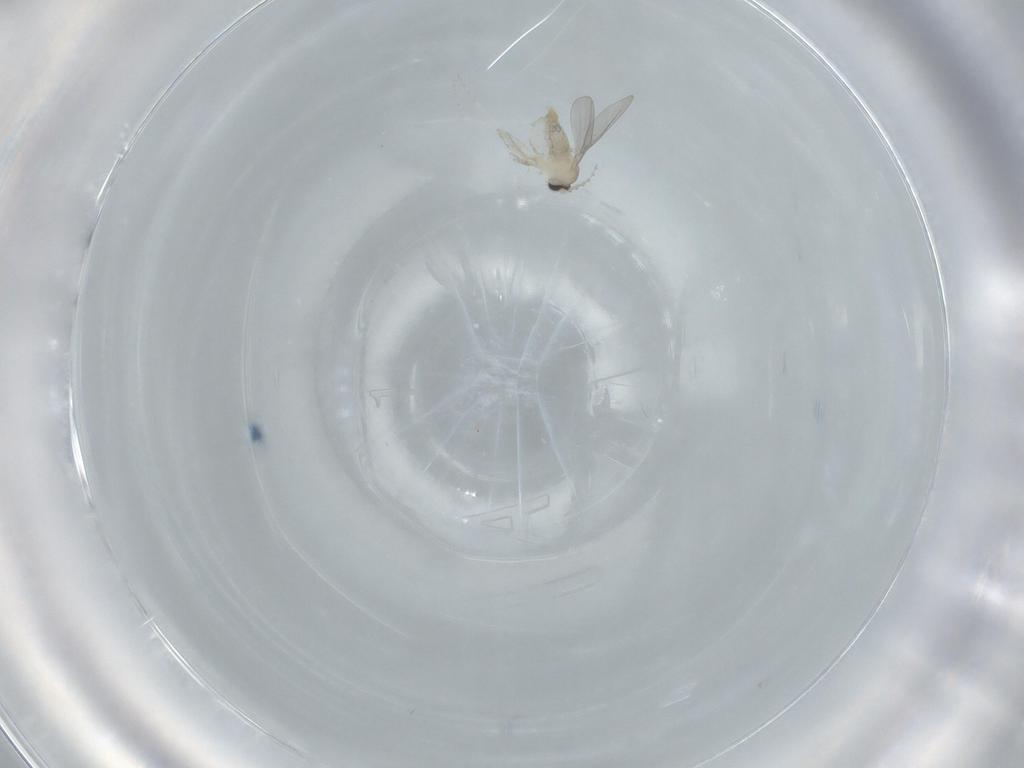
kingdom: Animalia
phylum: Arthropoda
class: Insecta
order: Diptera
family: Cecidomyiidae
